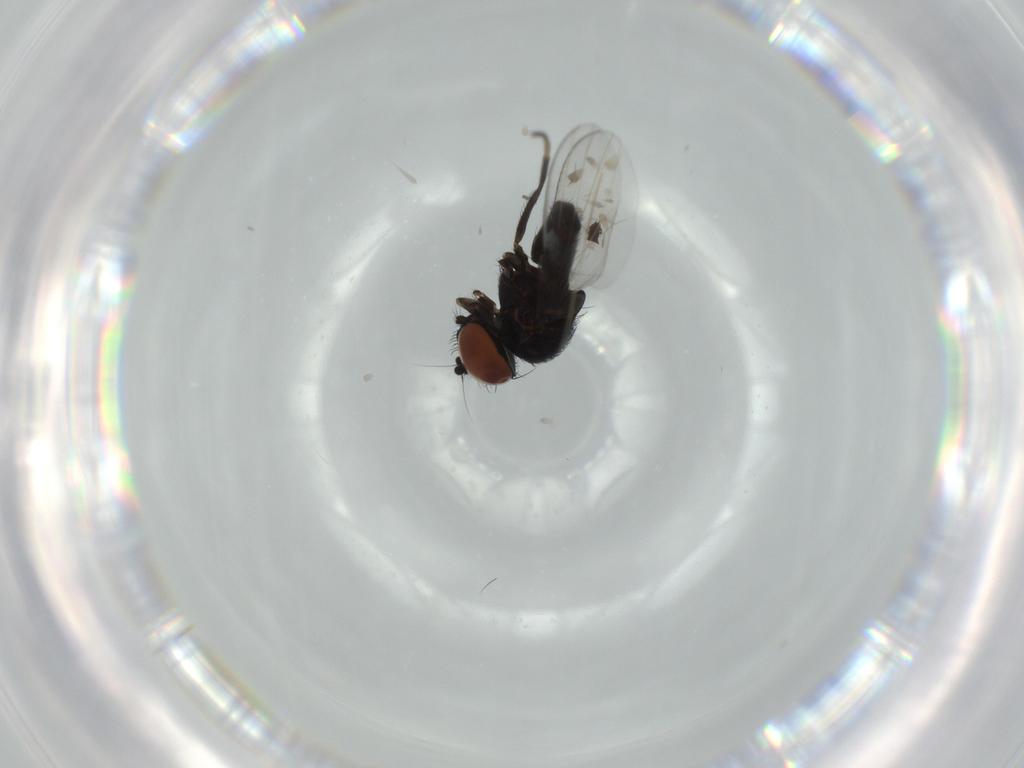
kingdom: Animalia
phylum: Arthropoda
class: Insecta
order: Diptera
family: Milichiidae
